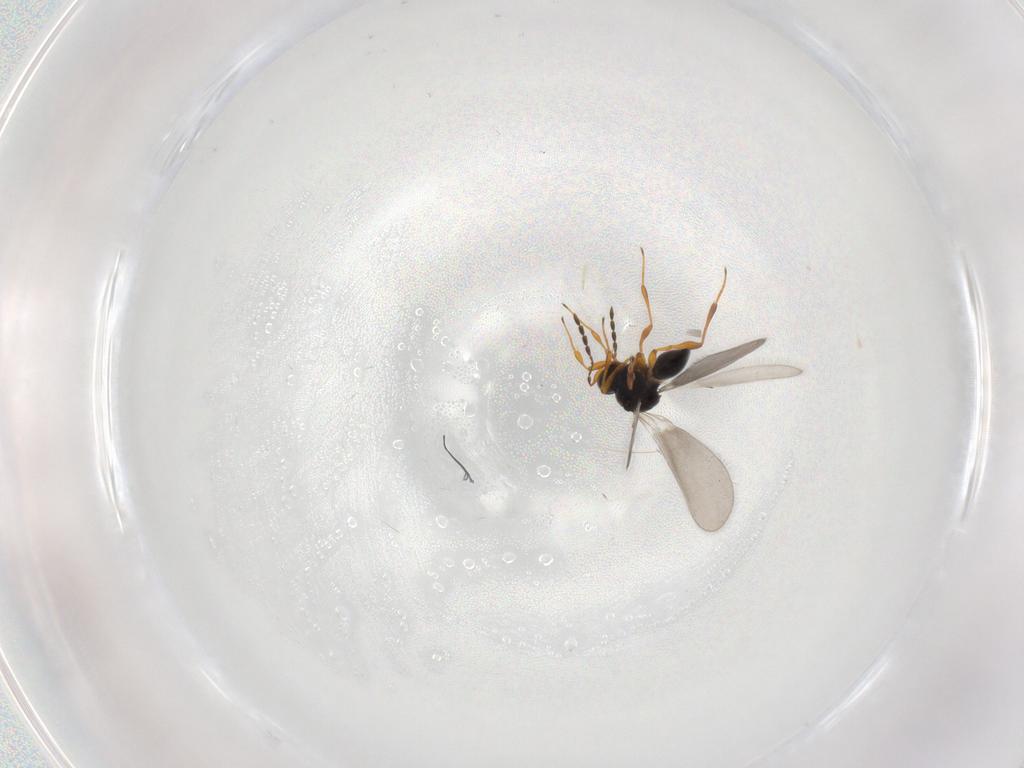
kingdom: Animalia
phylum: Arthropoda
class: Insecta
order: Hymenoptera
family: Platygastridae
